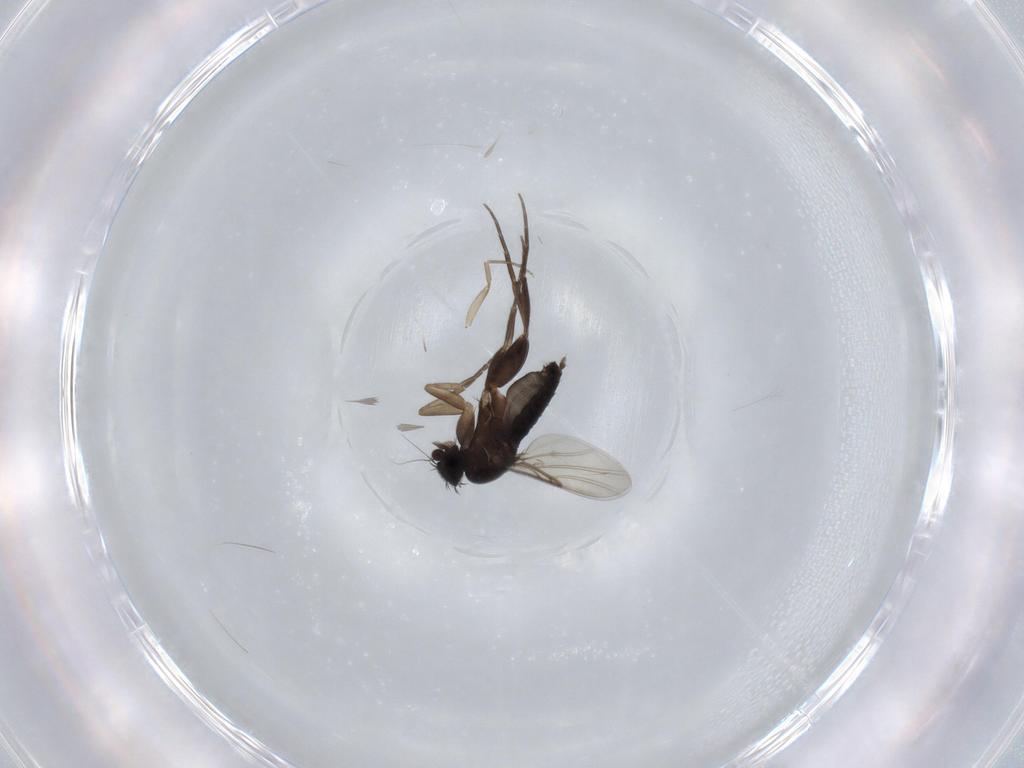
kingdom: Animalia
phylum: Arthropoda
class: Insecta
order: Diptera
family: Phoridae
